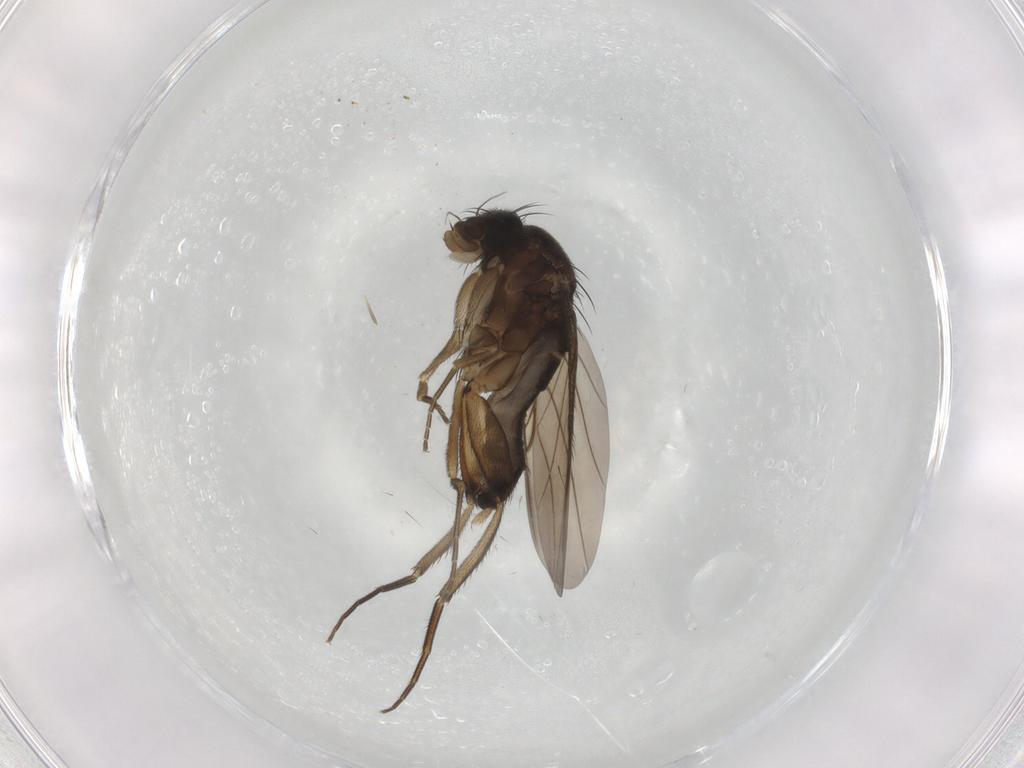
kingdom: Animalia
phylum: Arthropoda
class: Insecta
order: Diptera
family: Phoridae
